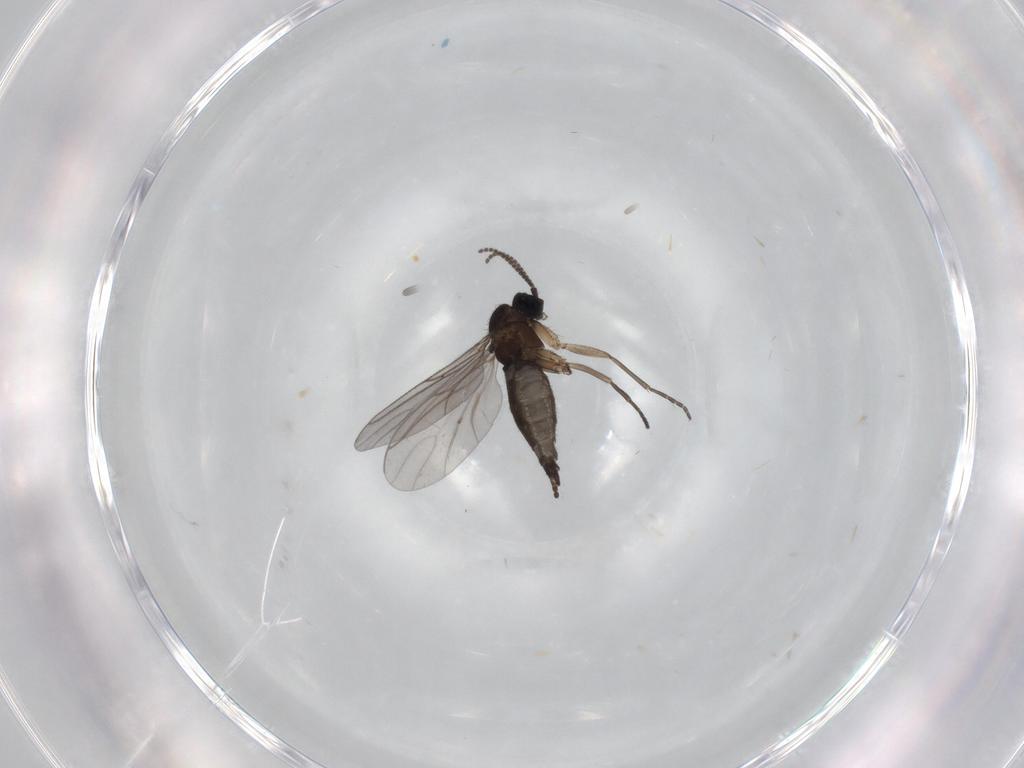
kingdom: Animalia
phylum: Arthropoda
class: Insecta
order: Diptera
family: Sciaridae
